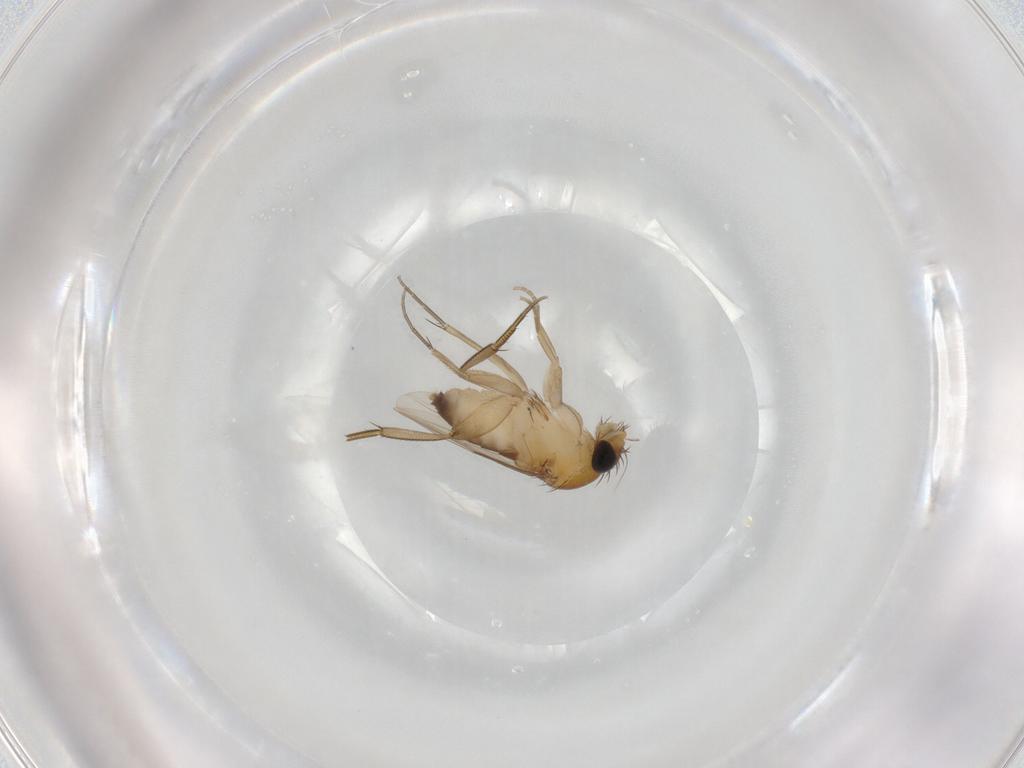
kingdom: Animalia
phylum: Arthropoda
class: Insecta
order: Diptera
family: Phoridae
